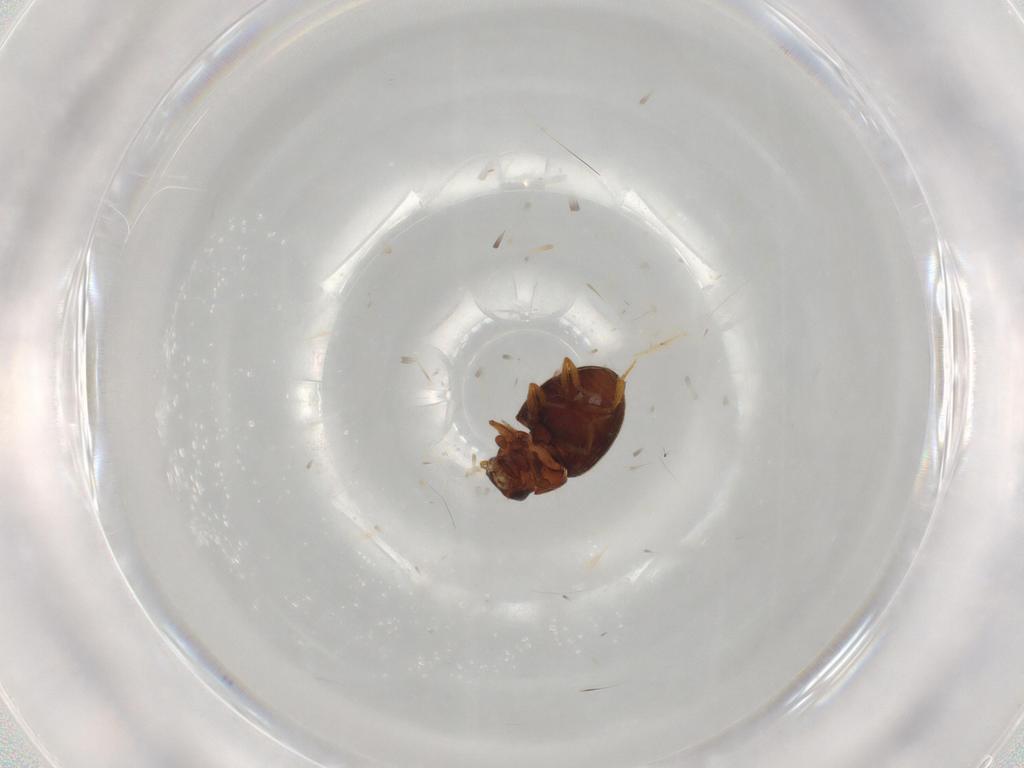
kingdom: Animalia
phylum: Arthropoda
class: Insecta
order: Coleoptera
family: Hydrophilidae
